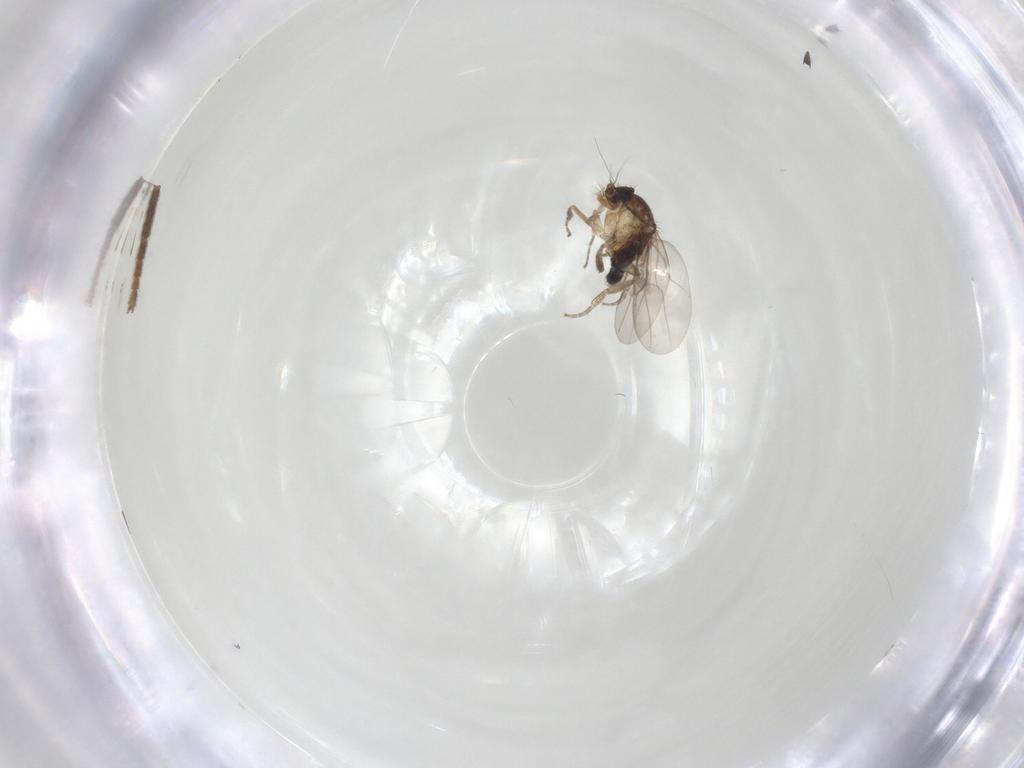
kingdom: Animalia
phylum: Arthropoda
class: Insecta
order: Diptera
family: Phoridae
